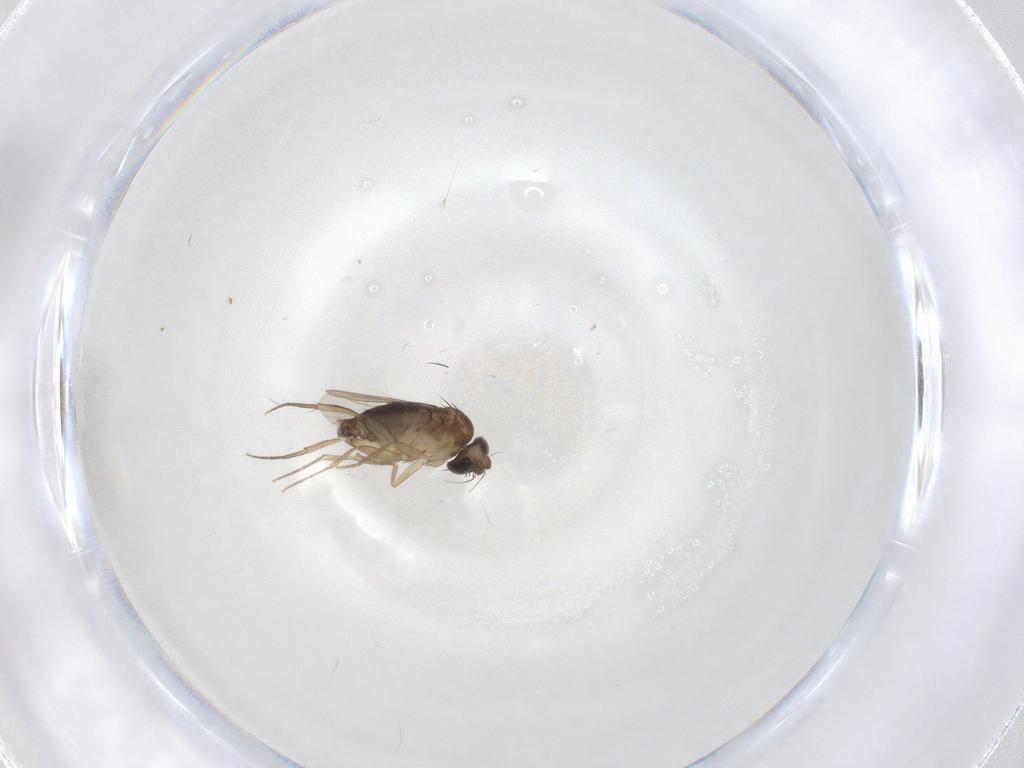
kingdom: Animalia
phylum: Arthropoda
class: Insecta
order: Diptera
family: Phoridae
